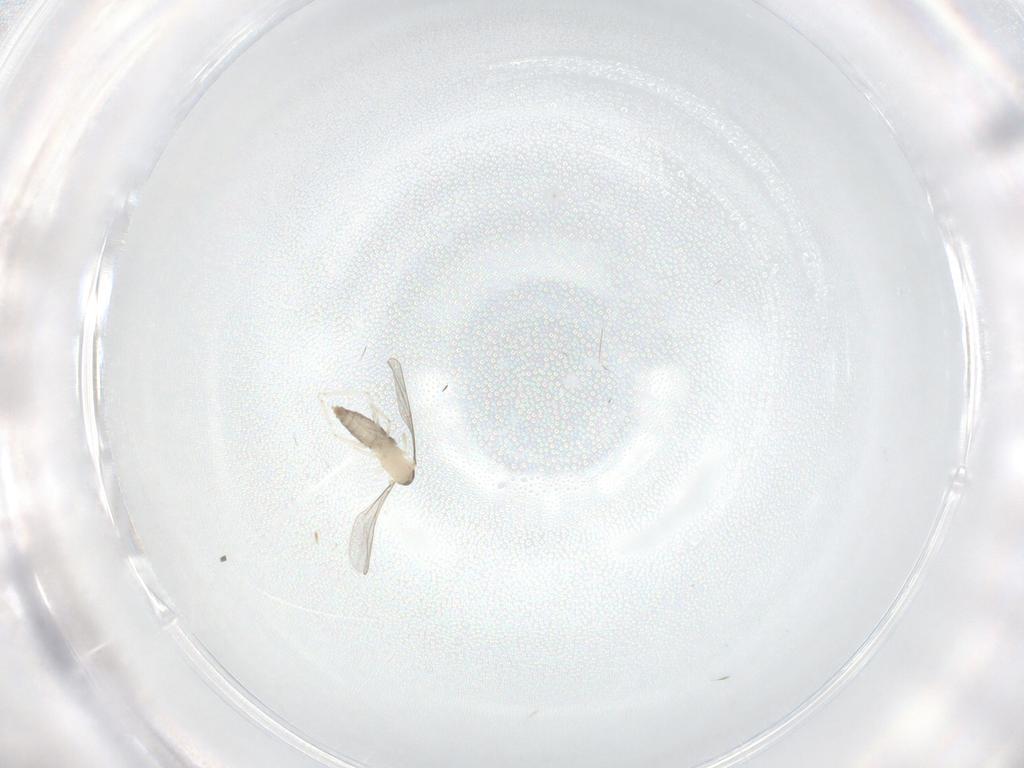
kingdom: Animalia
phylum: Arthropoda
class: Insecta
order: Diptera
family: Cecidomyiidae
